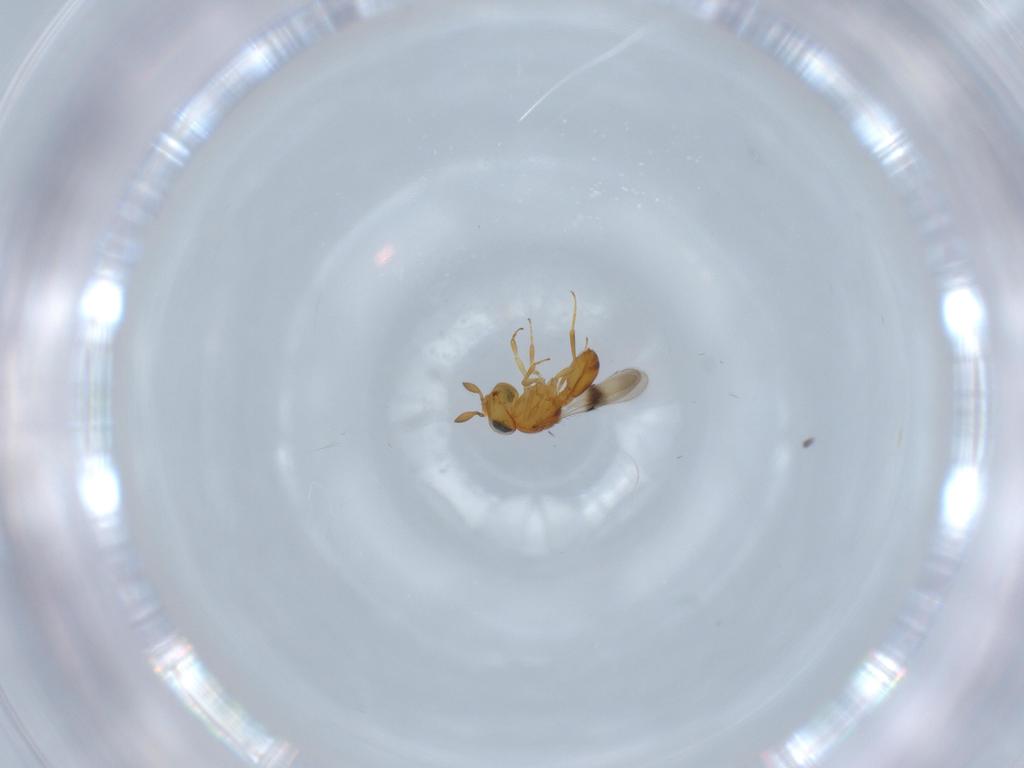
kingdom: Animalia
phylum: Arthropoda
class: Insecta
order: Hymenoptera
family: Scelionidae
